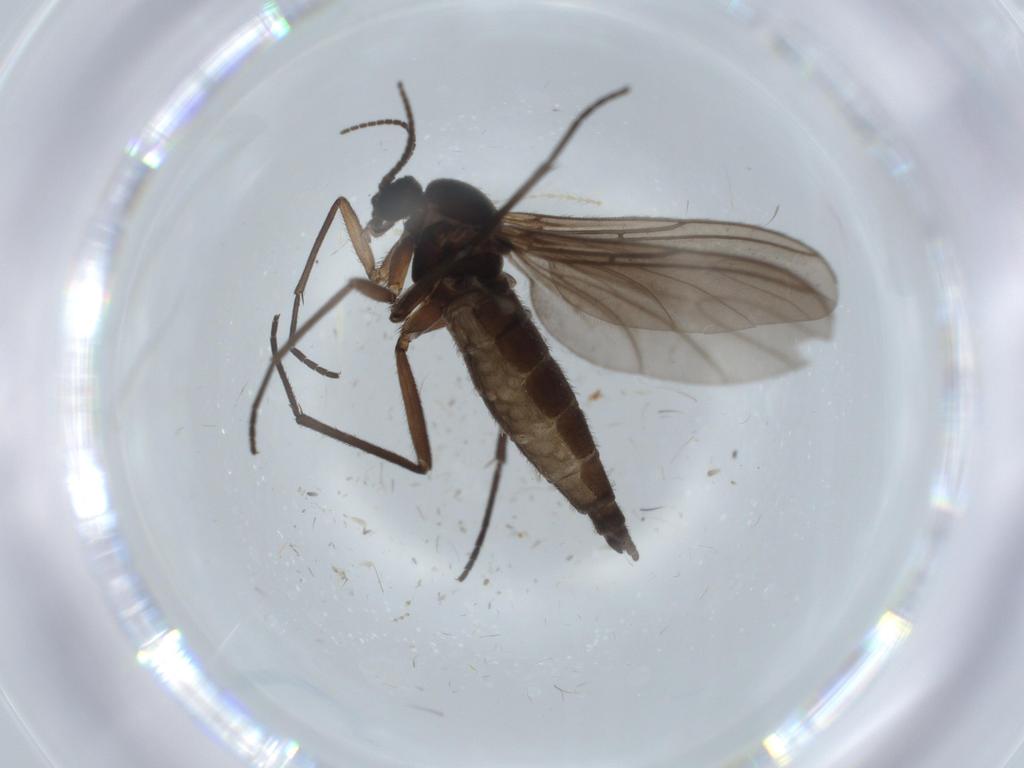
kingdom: Animalia
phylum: Arthropoda
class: Insecta
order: Diptera
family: Sciaridae
